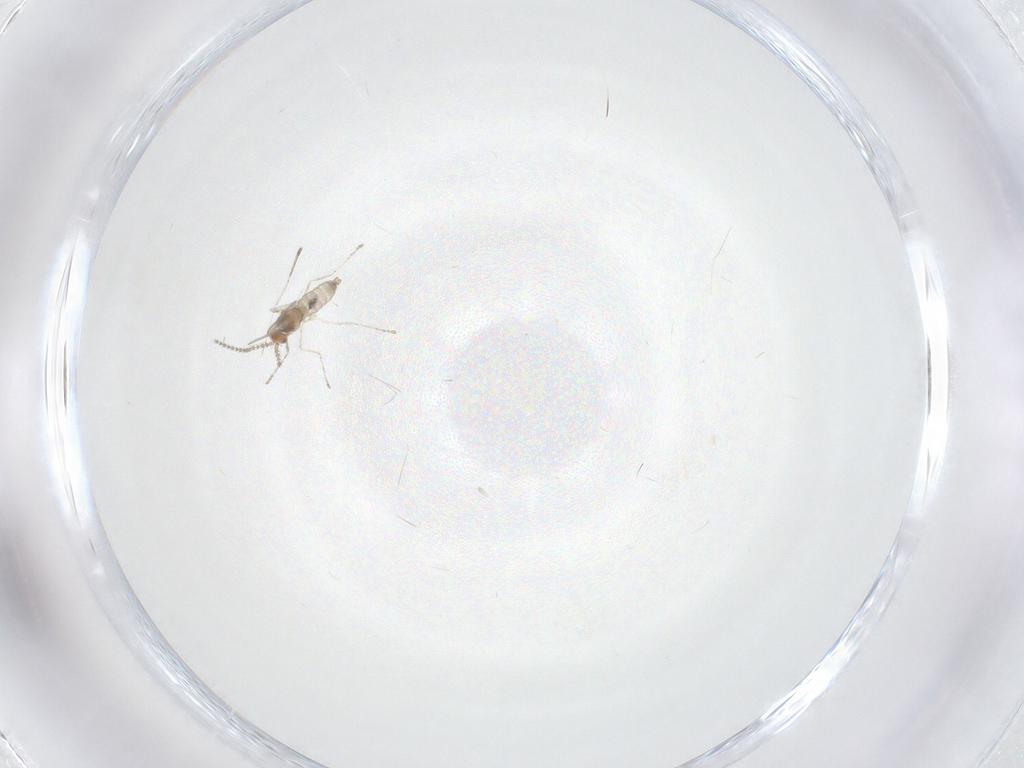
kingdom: Animalia
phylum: Arthropoda
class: Insecta
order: Diptera
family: Cecidomyiidae
